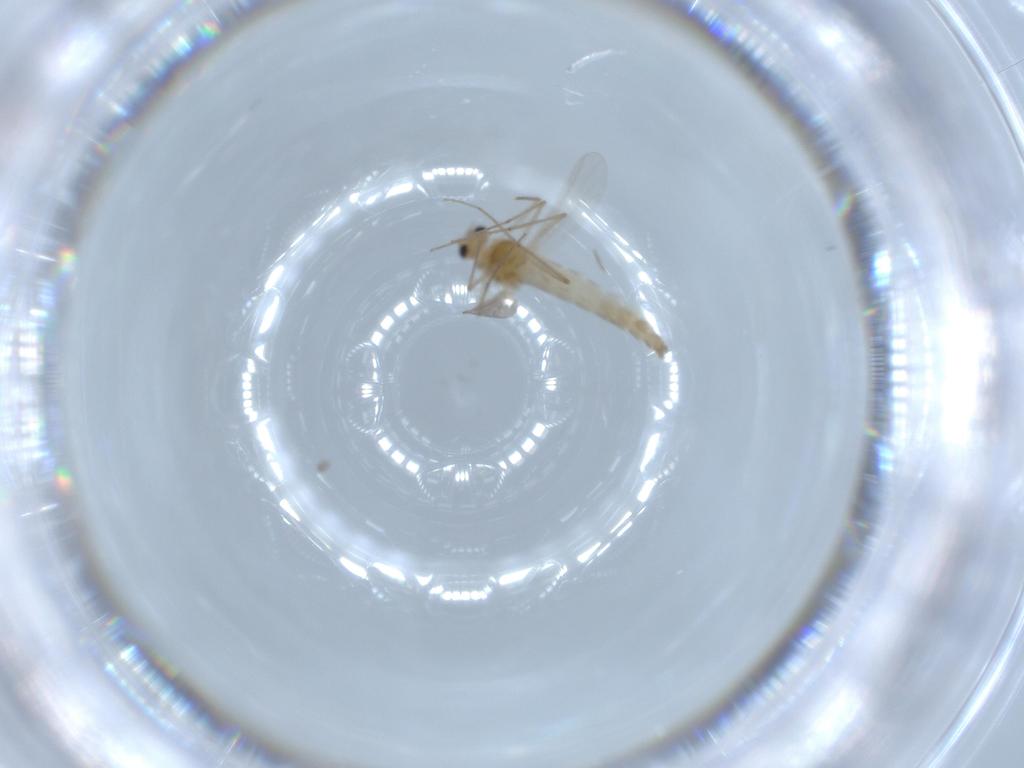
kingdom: Animalia
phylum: Arthropoda
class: Insecta
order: Diptera
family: Chironomidae
